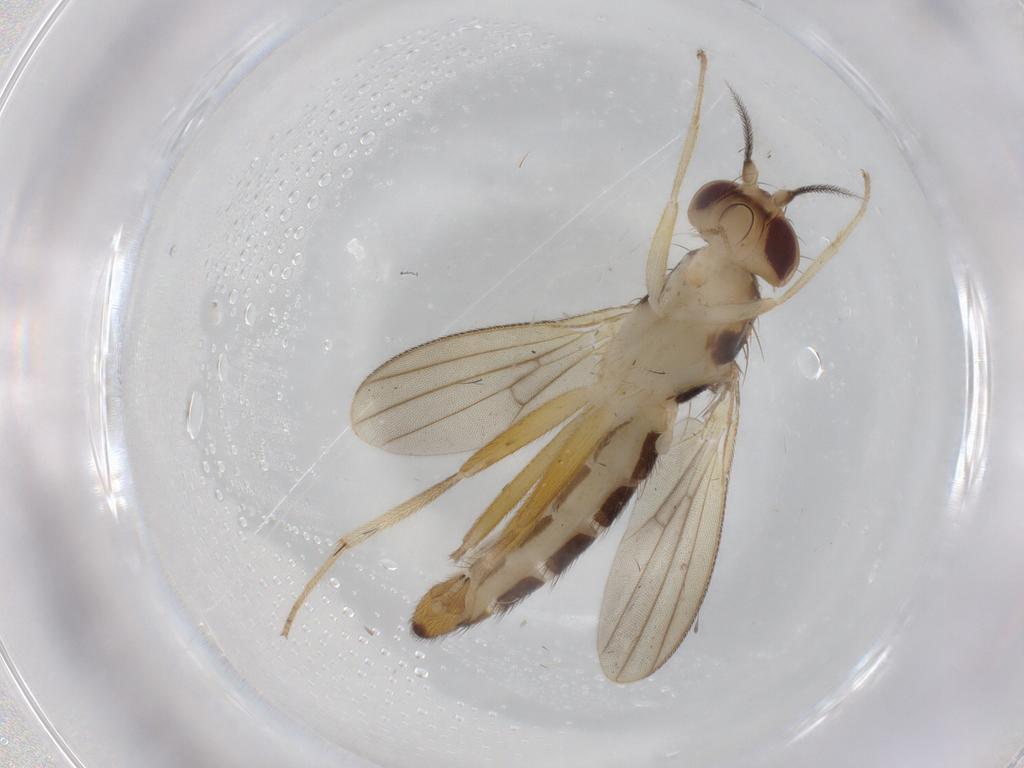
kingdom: Animalia
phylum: Arthropoda
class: Insecta
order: Diptera
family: Clusiidae
